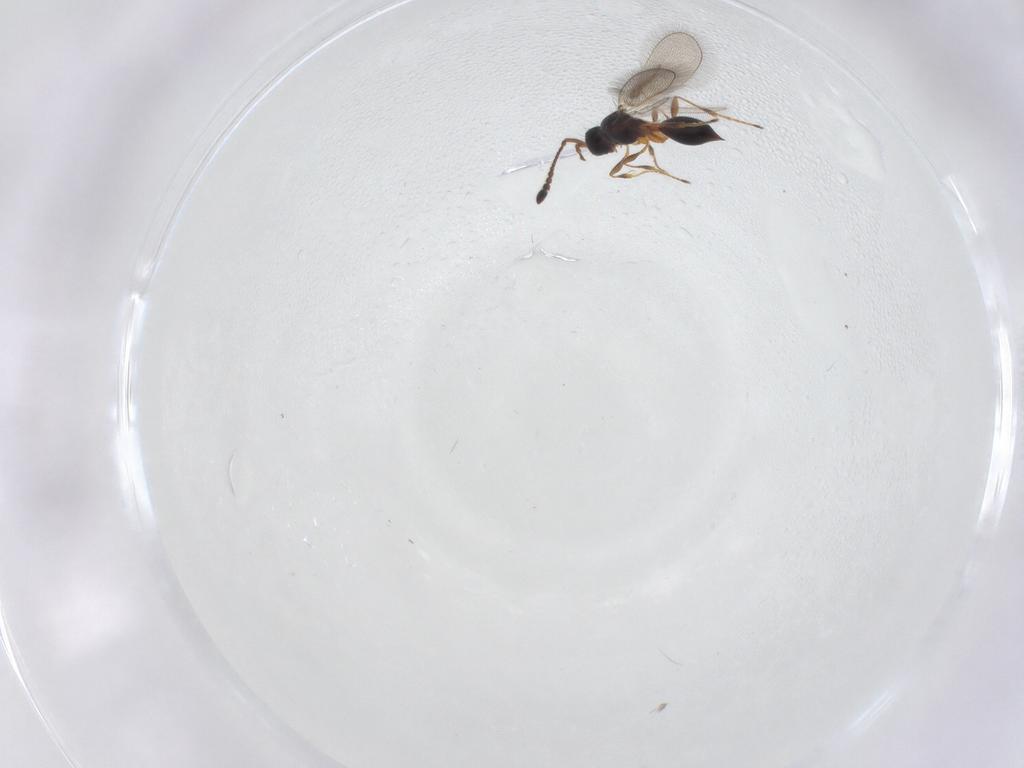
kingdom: Animalia
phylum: Arthropoda
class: Insecta
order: Hymenoptera
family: Diapriidae
